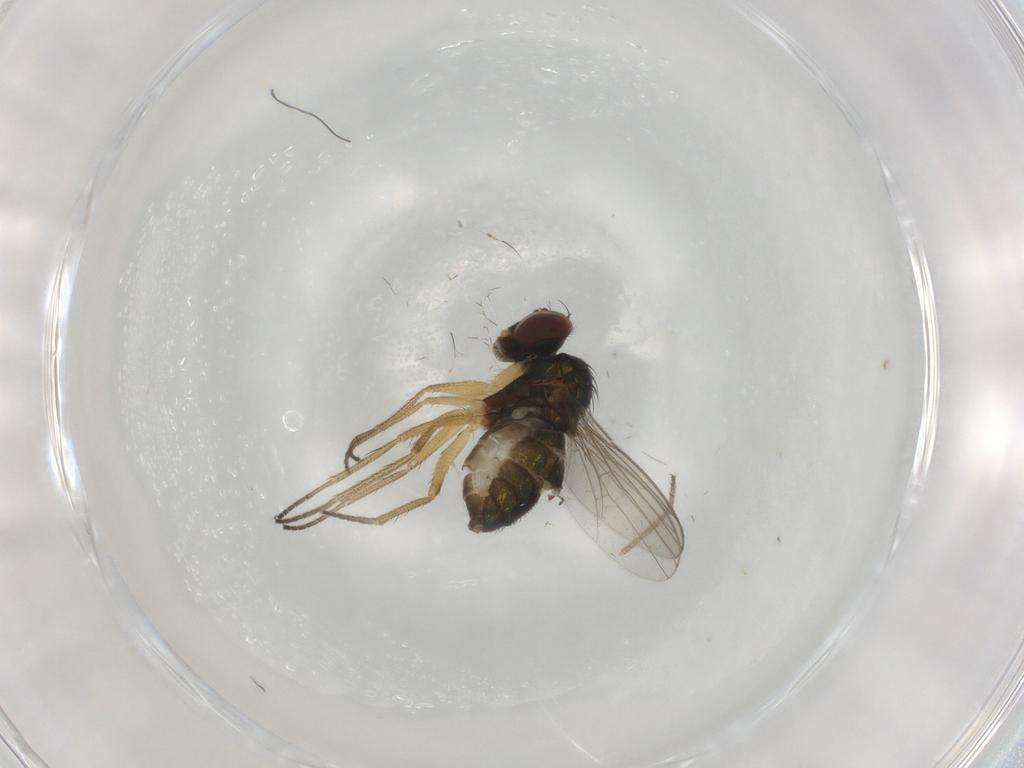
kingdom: Animalia
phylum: Arthropoda
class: Insecta
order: Diptera
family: Dolichopodidae
